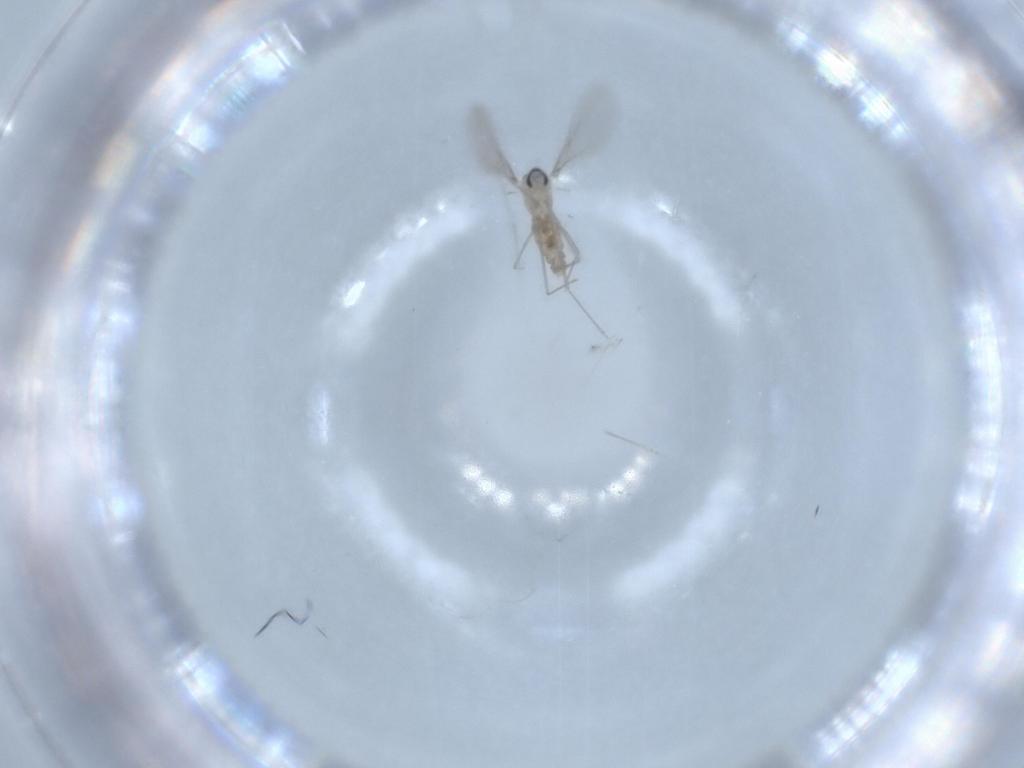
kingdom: Animalia
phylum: Arthropoda
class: Insecta
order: Diptera
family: Cecidomyiidae
